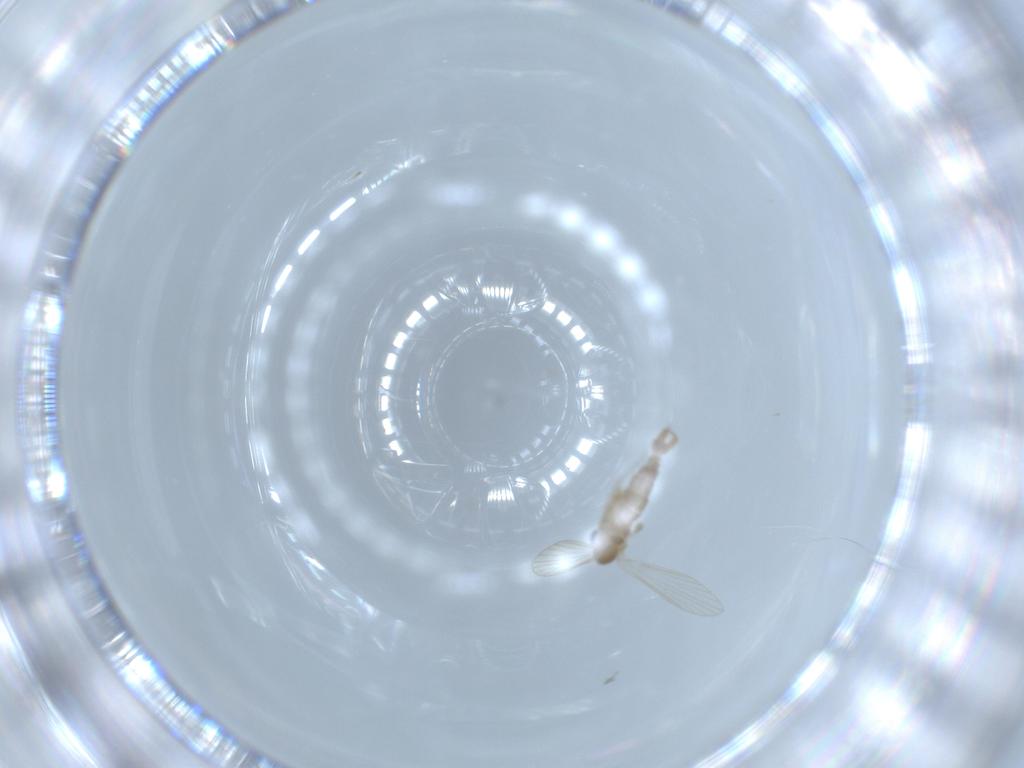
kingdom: Animalia
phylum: Arthropoda
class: Insecta
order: Diptera
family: Psychodidae
